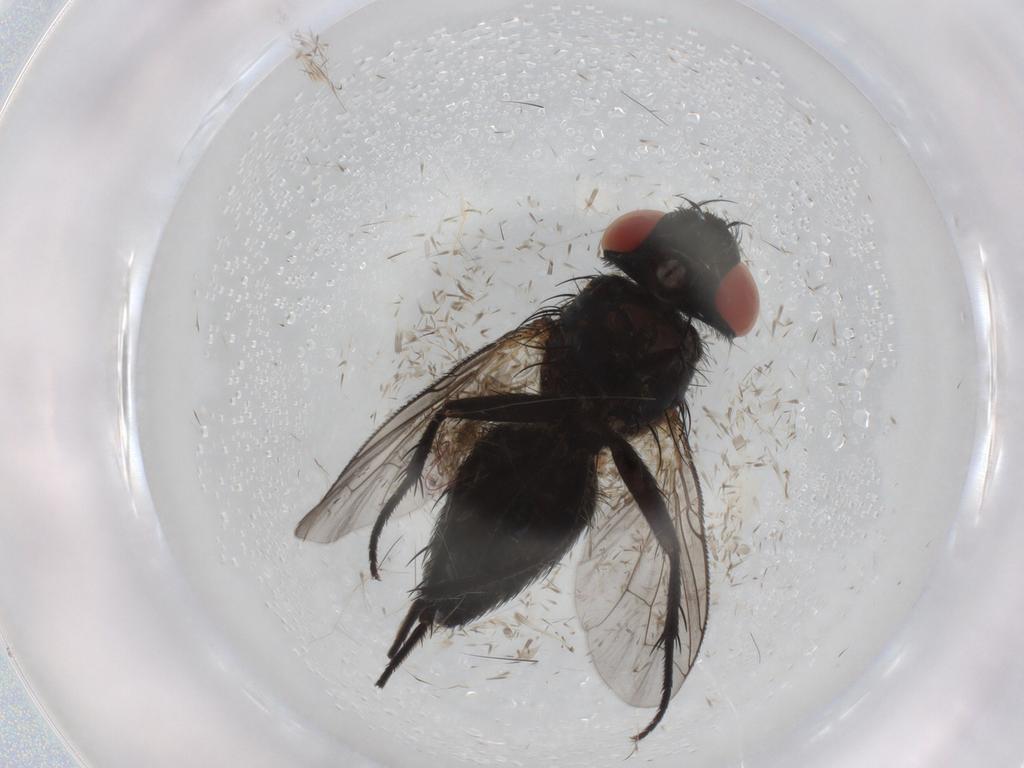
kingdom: Animalia
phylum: Arthropoda
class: Insecta
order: Diptera
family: Sarcophagidae
